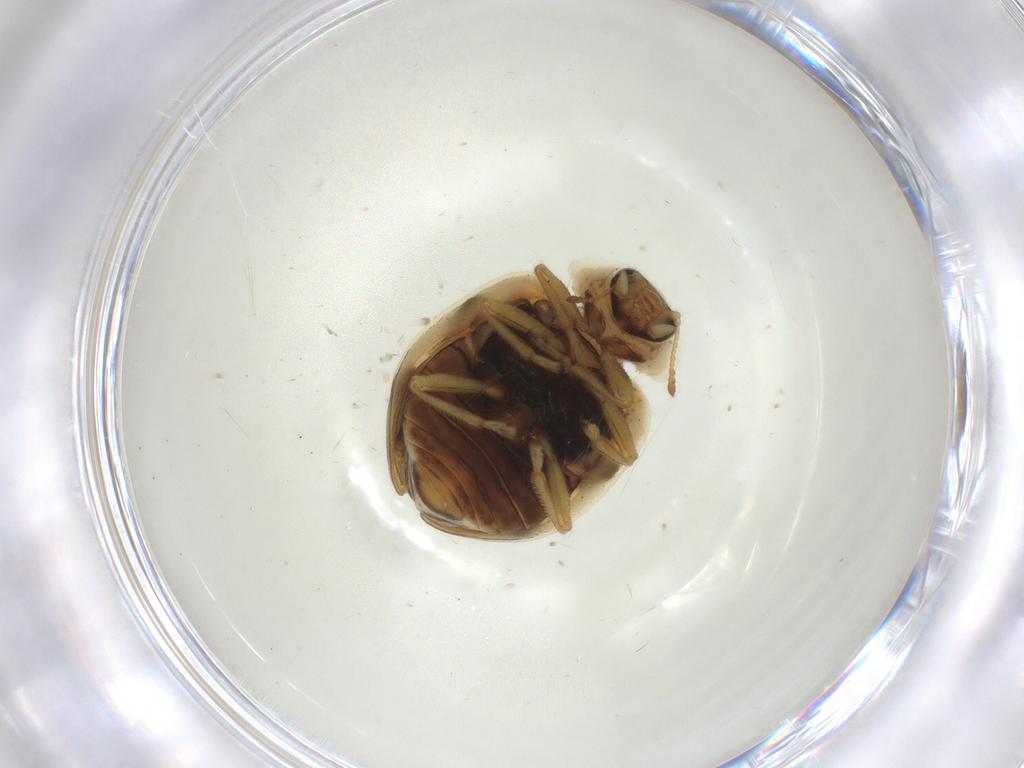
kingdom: Animalia
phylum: Arthropoda
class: Insecta
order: Coleoptera
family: Coccinellidae
